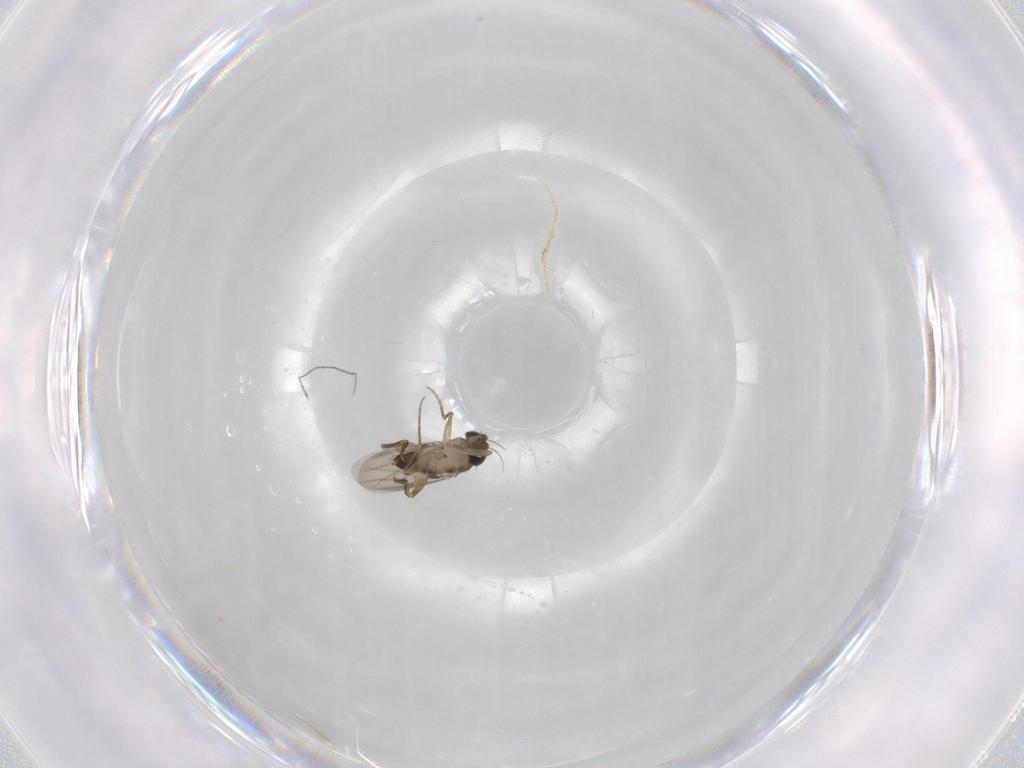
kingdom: Animalia
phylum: Arthropoda
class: Insecta
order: Diptera
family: Phoridae
